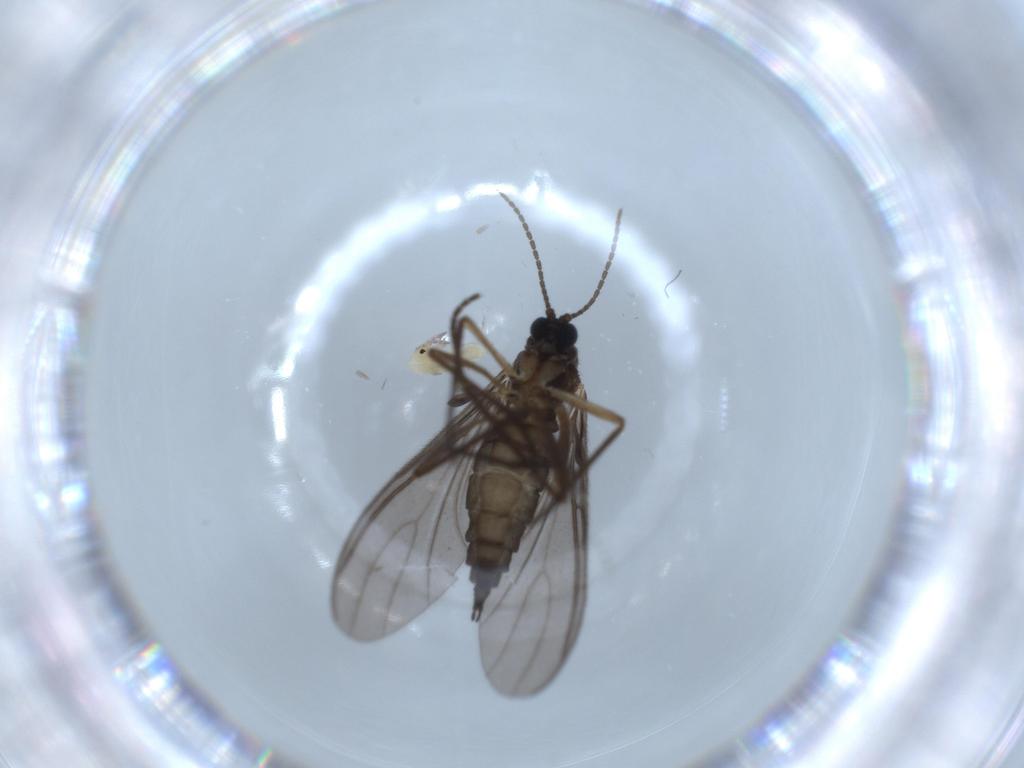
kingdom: Animalia
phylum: Arthropoda
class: Insecta
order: Diptera
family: Sciaridae
